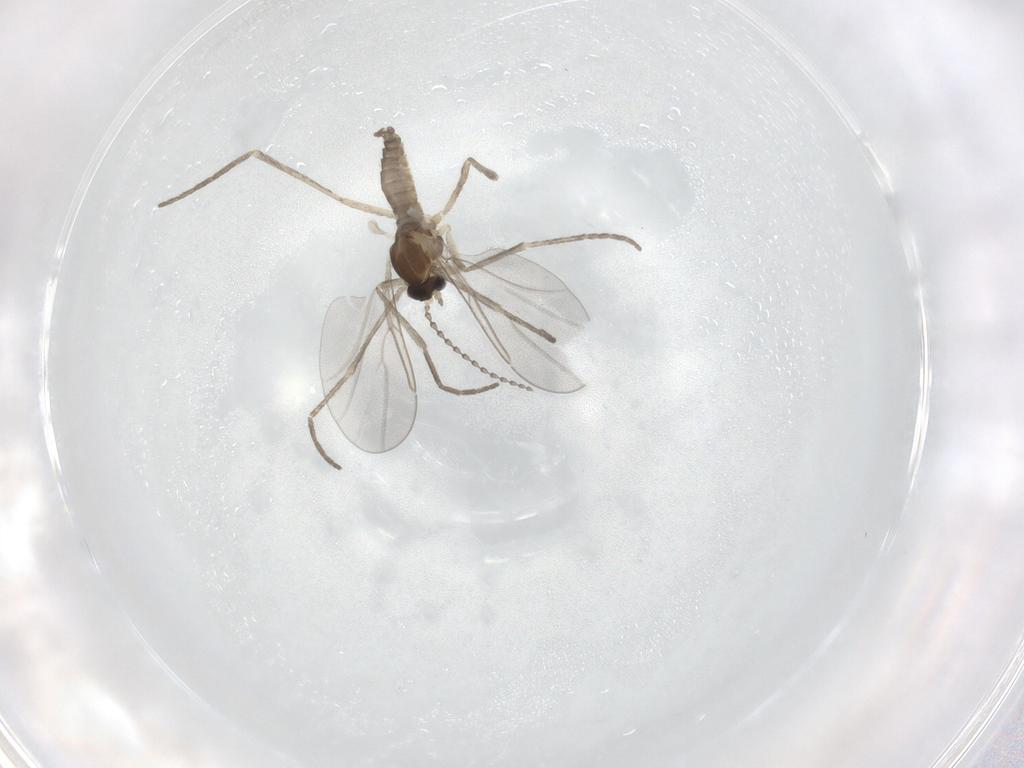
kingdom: Animalia
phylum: Arthropoda
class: Insecta
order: Diptera
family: Cecidomyiidae
